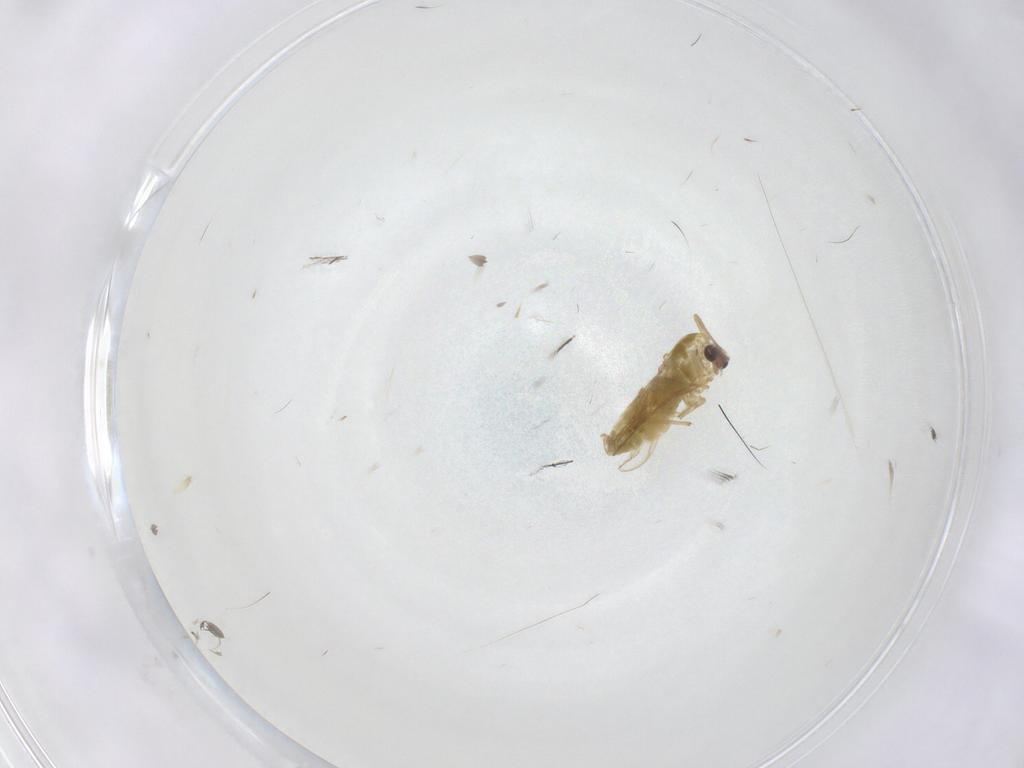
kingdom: Animalia
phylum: Arthropoda
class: Insecta
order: Diptera
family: Chironomidae
